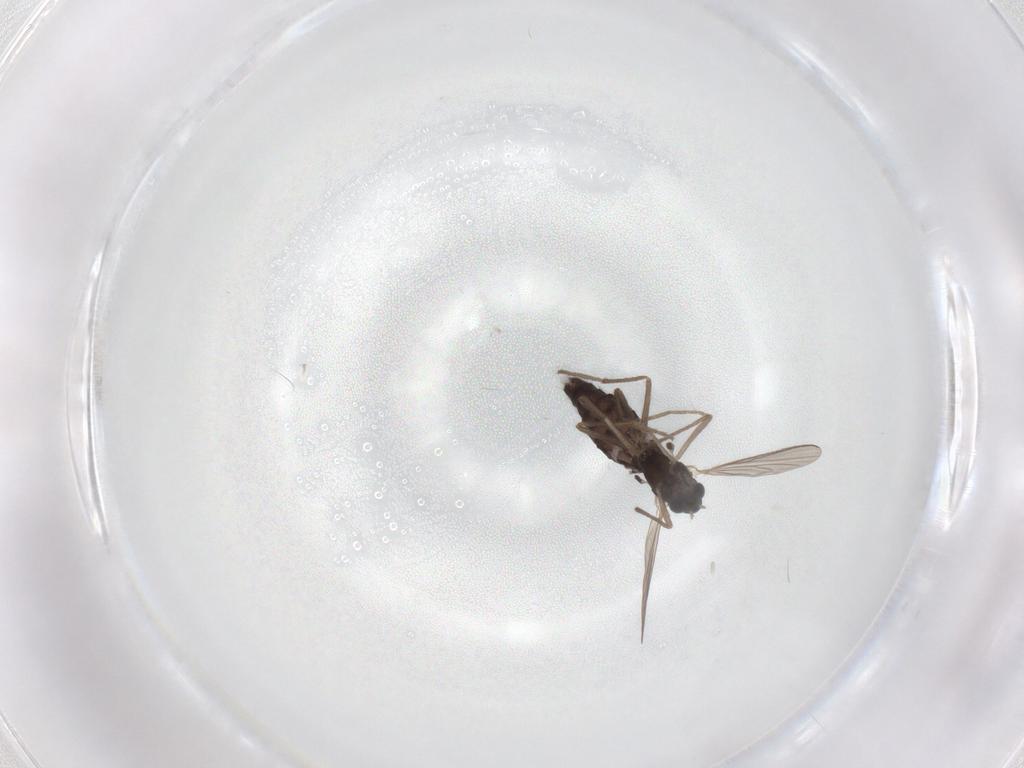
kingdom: Animalia
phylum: Arthropoda
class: Insecta
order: Diptera
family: Chironomidae
